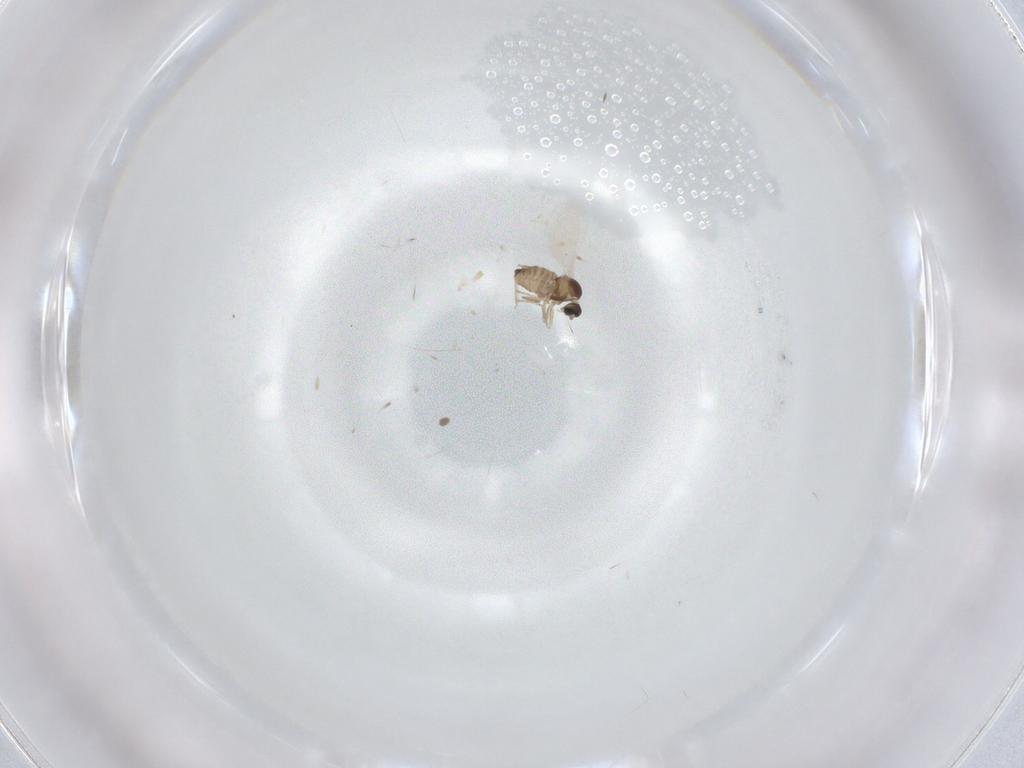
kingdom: Animalia
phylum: Arthropoda
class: Insecta
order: Diptera
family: Cecidomyiidae
